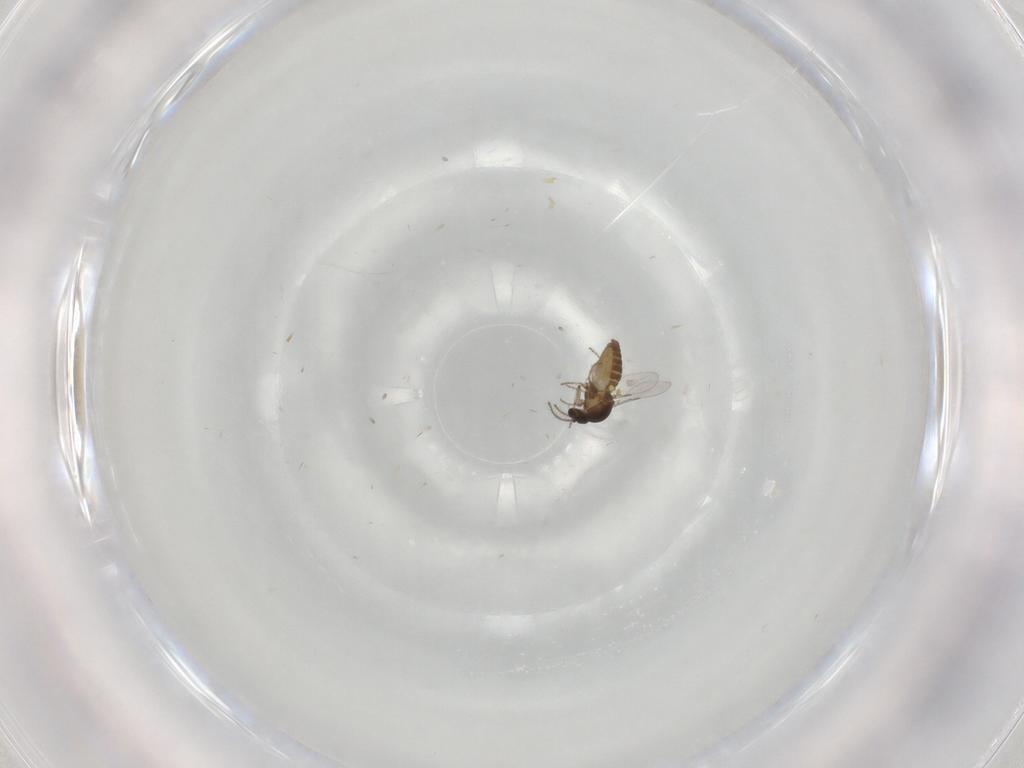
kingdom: Animalia
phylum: Arthropoda
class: Insecta
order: Diptera
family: Ceratopogonidae
